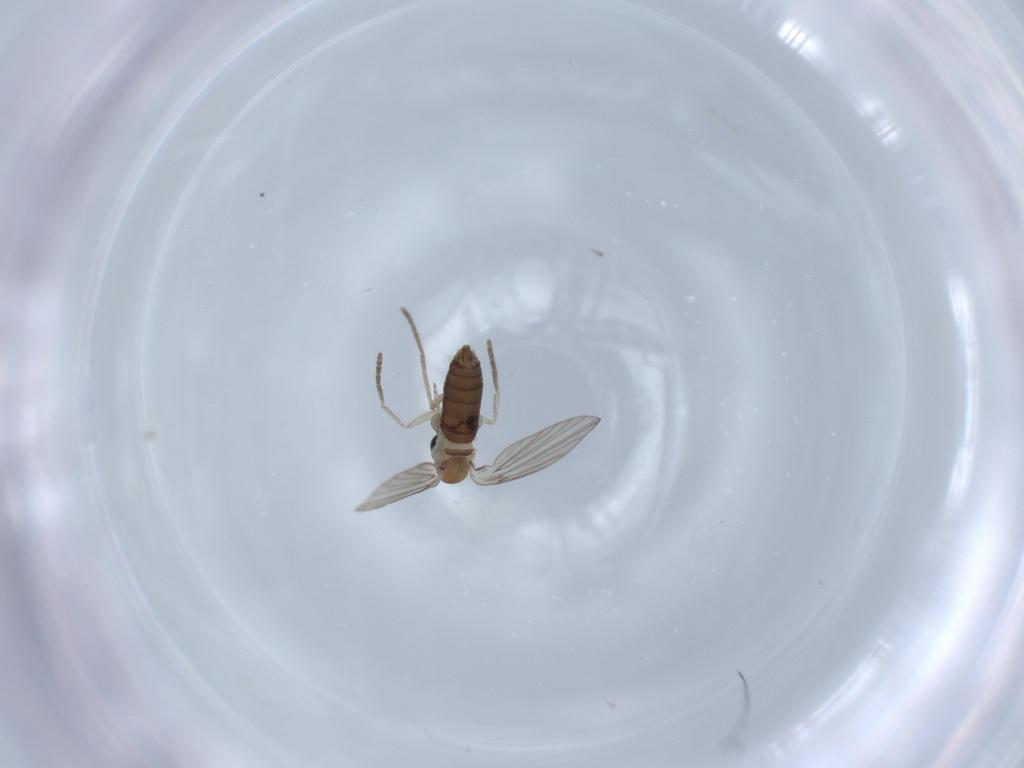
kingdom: Animalia
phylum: Arthropoda
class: Insecta
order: Diptera
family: Psychodidae
